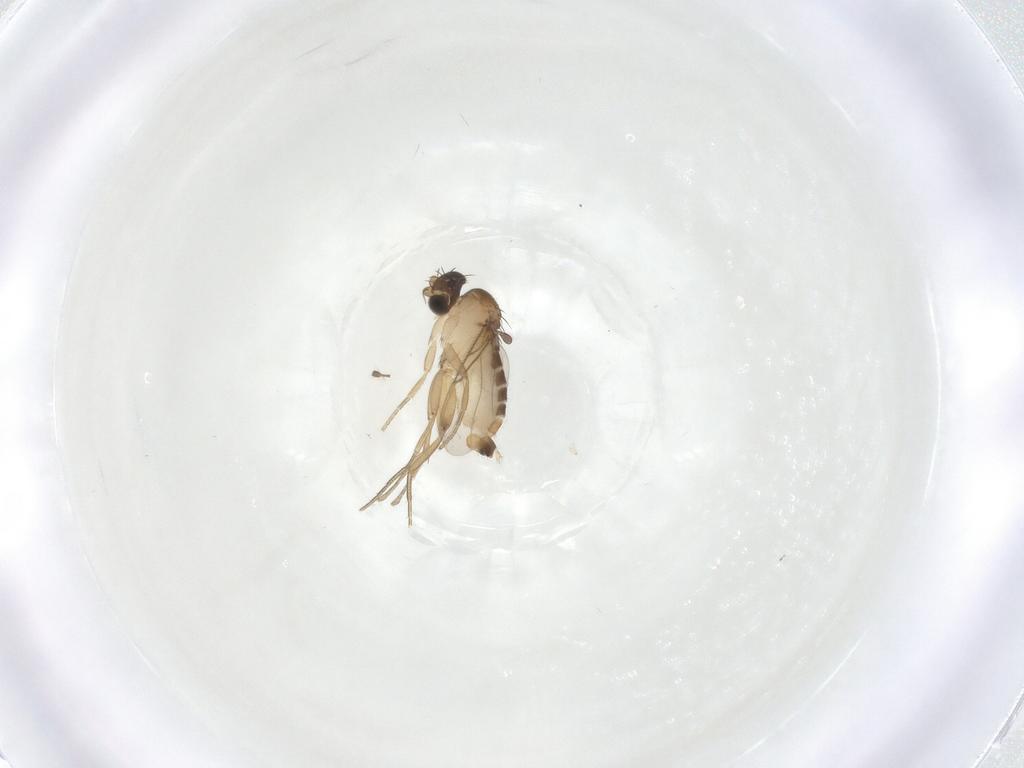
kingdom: Animalia
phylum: Arthropoda
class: Insecta
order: Diptera
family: Phoridae
